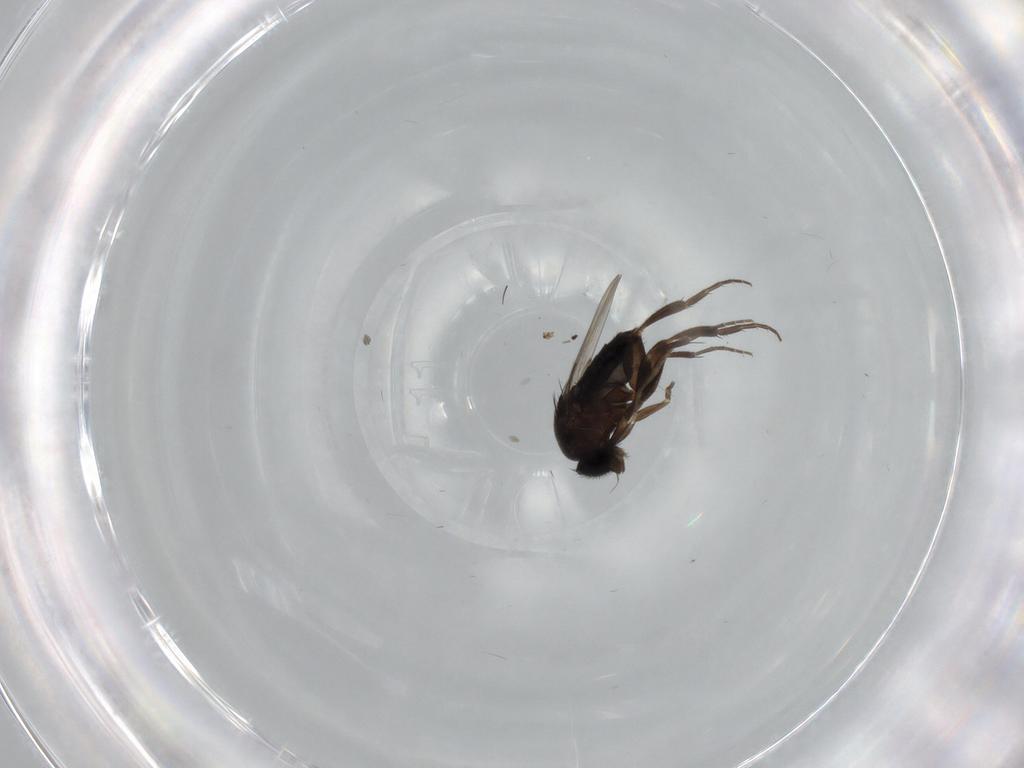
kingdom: Animalia
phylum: Arthropoda
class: Insecta
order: Diptera
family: Phoridae
